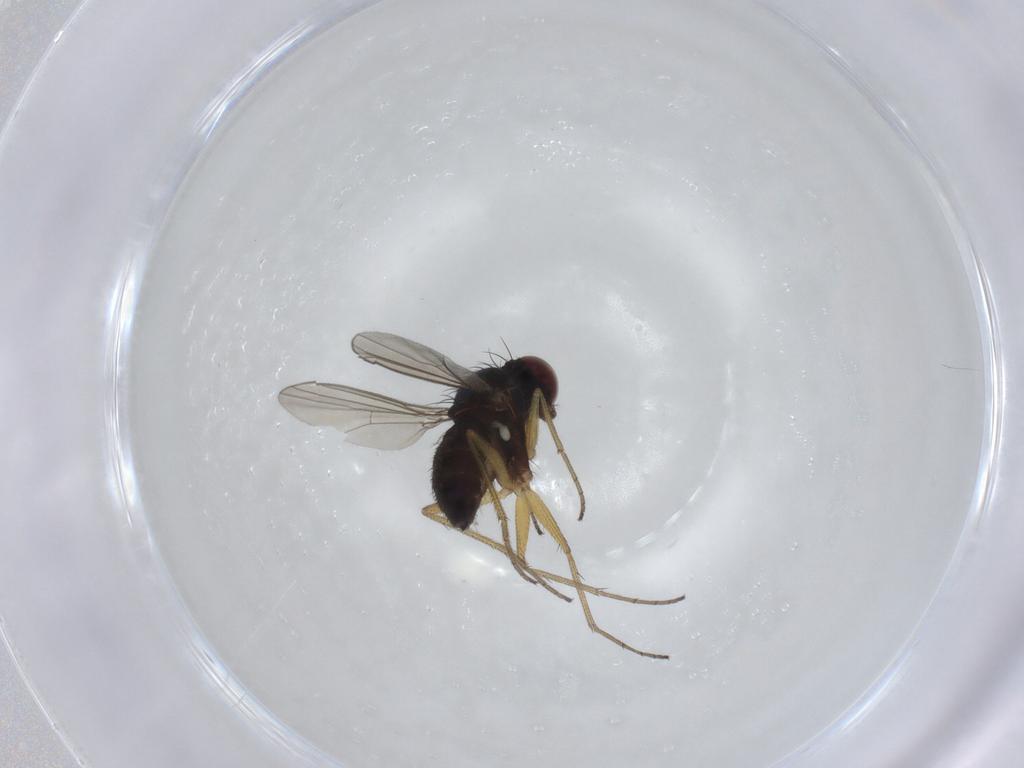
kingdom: Animalia
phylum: Arthropoda
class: Insecta
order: Diptera
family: Dolichopodidae
